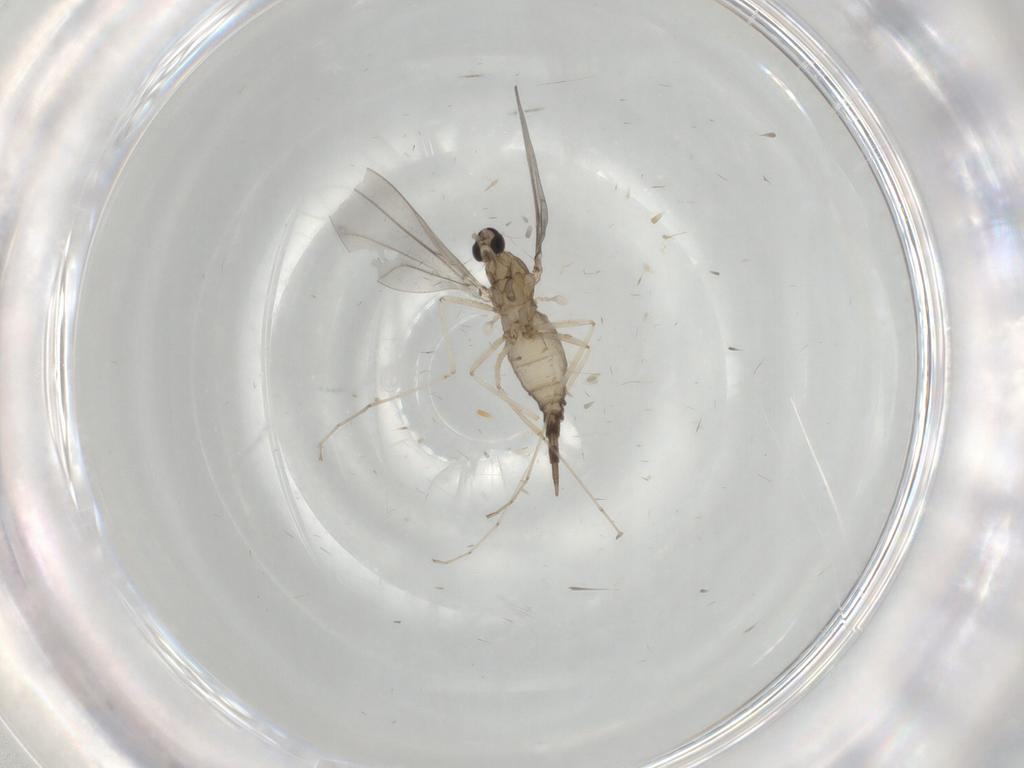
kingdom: Animalia
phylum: Arthropoda
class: Insecta
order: Diptera
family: Cecidomyiidae
